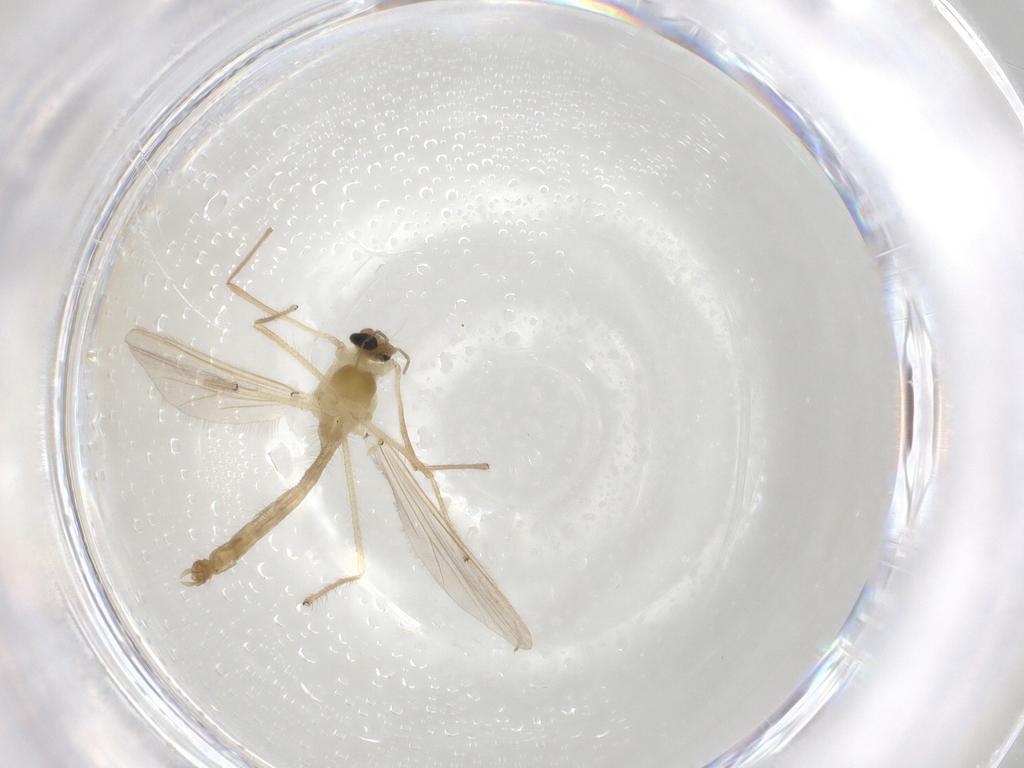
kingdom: Animalia
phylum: Arthropoda
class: Insecta
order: Diptera
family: Chironomidae
